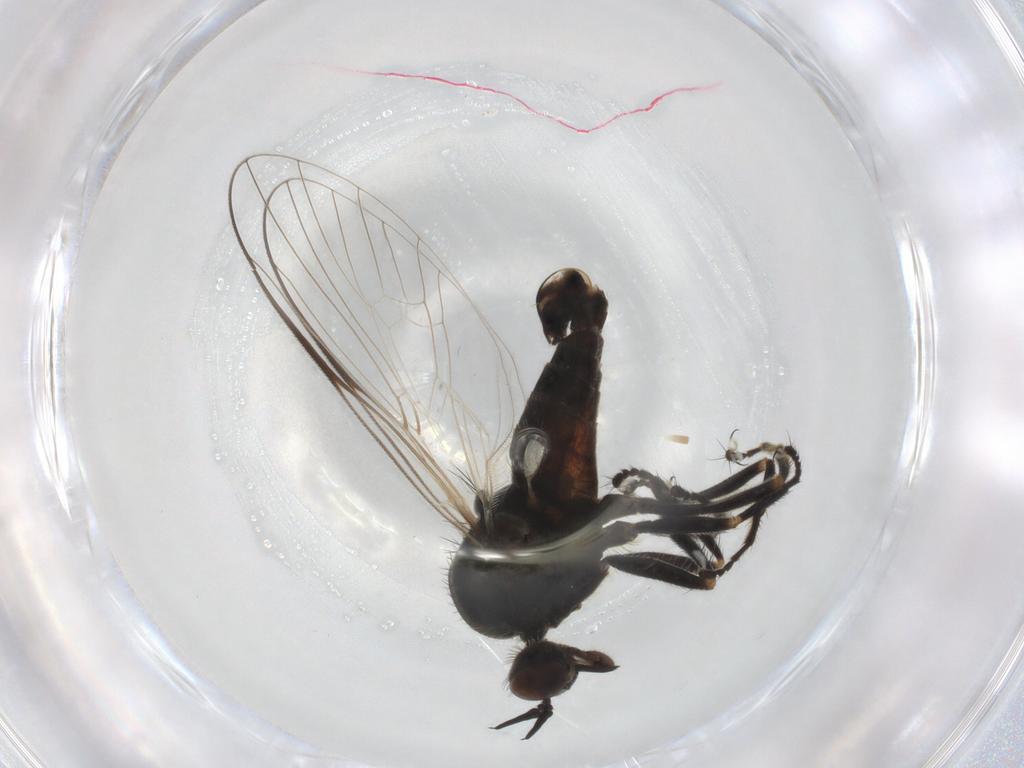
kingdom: Animalia
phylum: Arthropoda
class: Insecta
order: Diptera
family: Empididae
